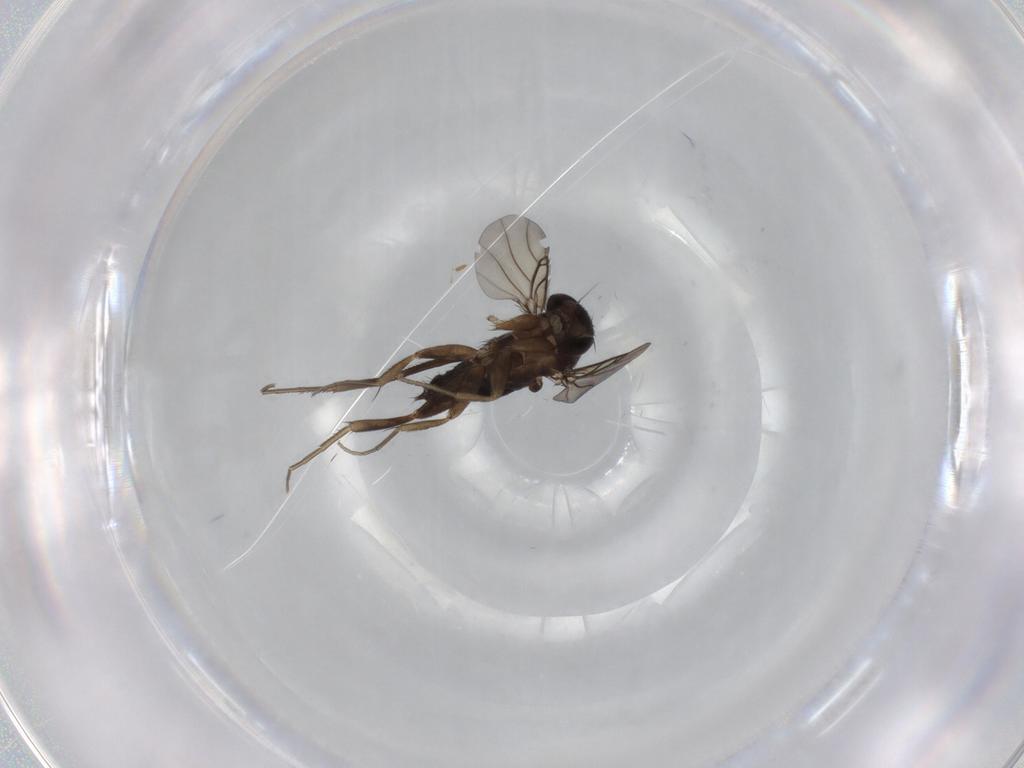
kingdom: Animalia
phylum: Arthropoda
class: Insecta
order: Diptera
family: Phoridae
